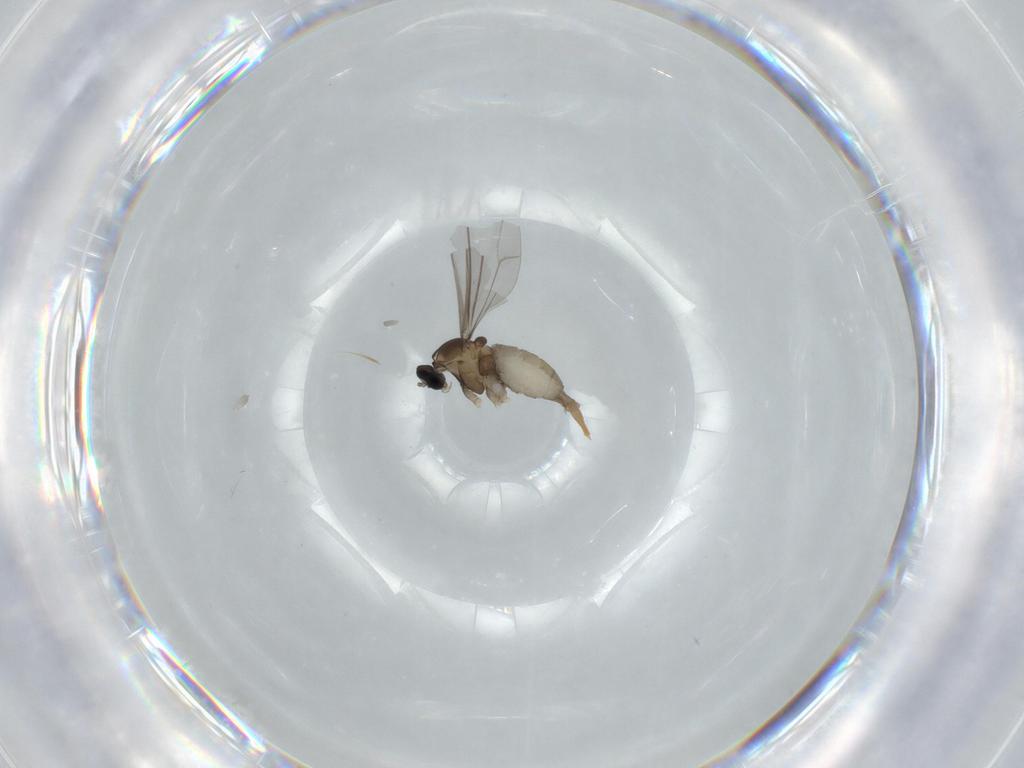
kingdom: Animalia
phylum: Arthropoda
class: Insecta
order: Diptera
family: Cecidomyiidae
